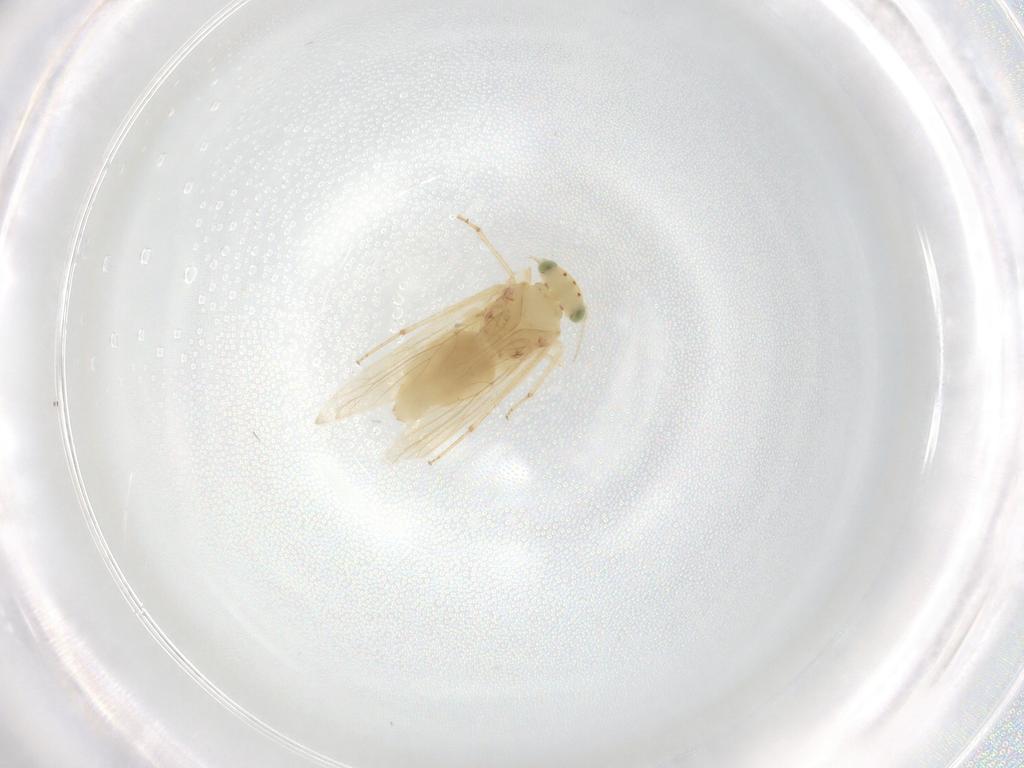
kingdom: Animalia
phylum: Arthropoda
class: Insecta
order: Psocodea
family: Lepidopsocidae
